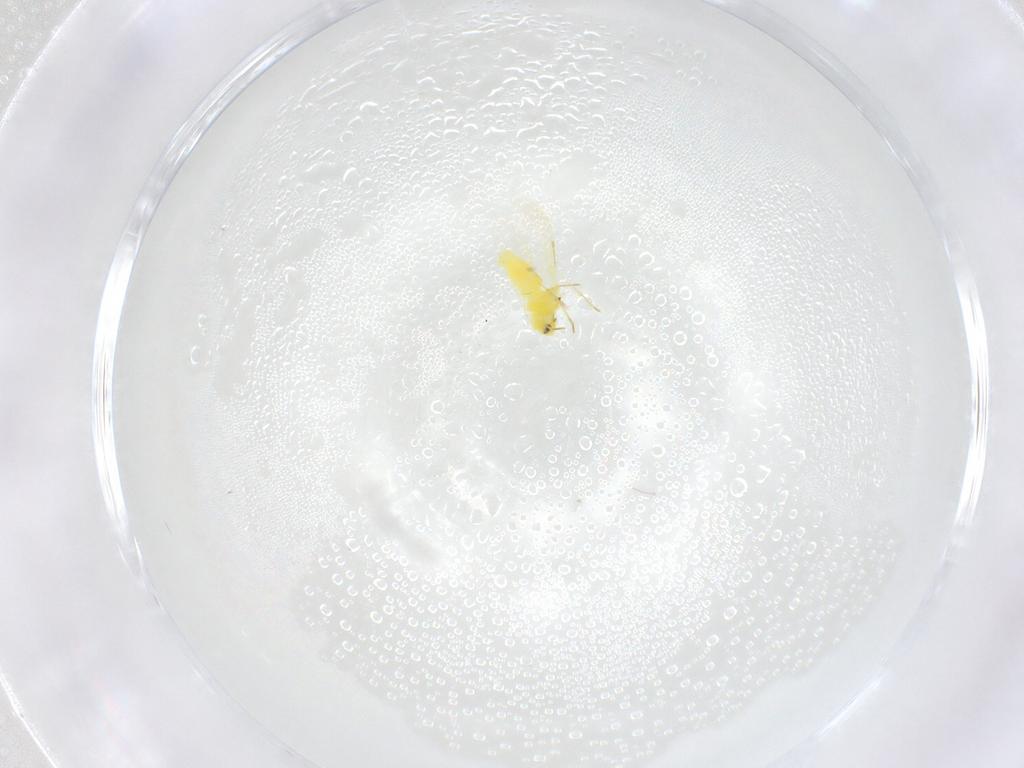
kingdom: Animalia
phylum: Arthropoda
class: Insecta
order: Hemiptera
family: Aleyrodidae
